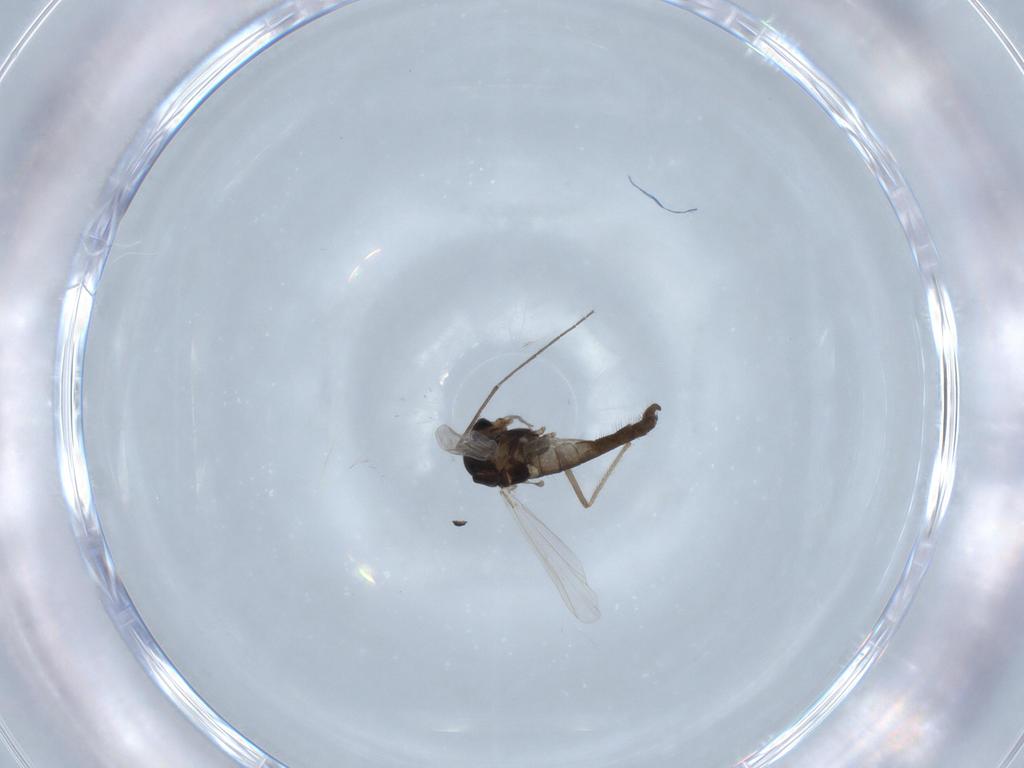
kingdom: Animalia
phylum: Arthropoda
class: Insecta
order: Diptera
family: Chironomidae
